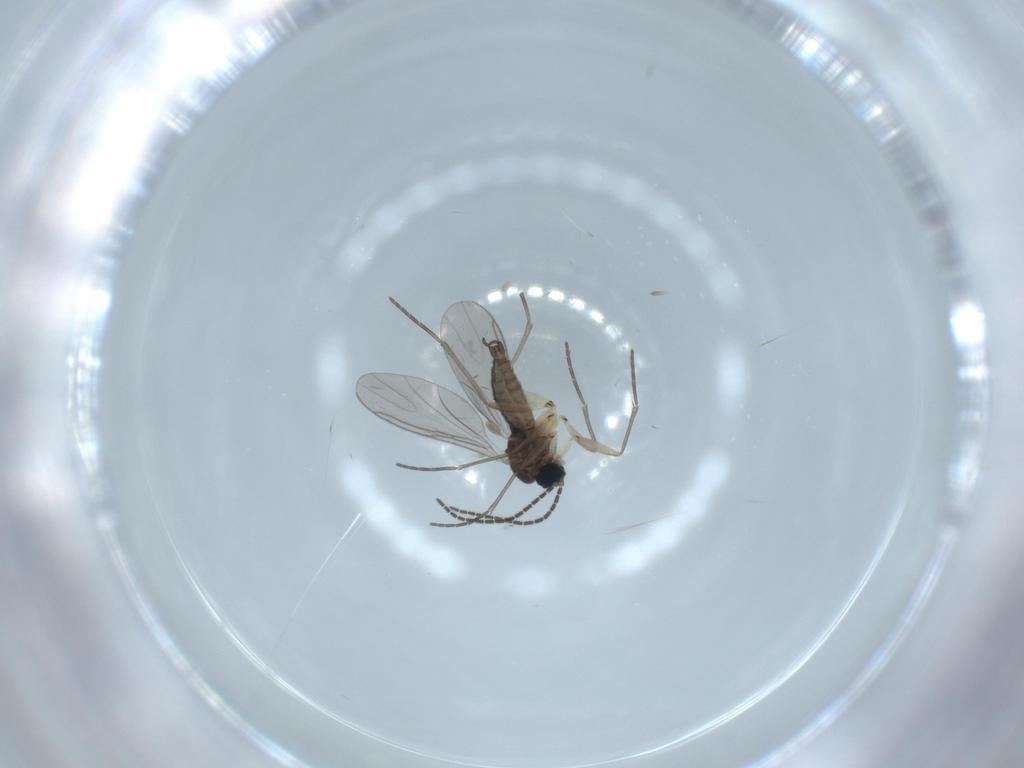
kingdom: Animalia
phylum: Arthropoda
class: Insecta
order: Diptera
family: Sciaridae
